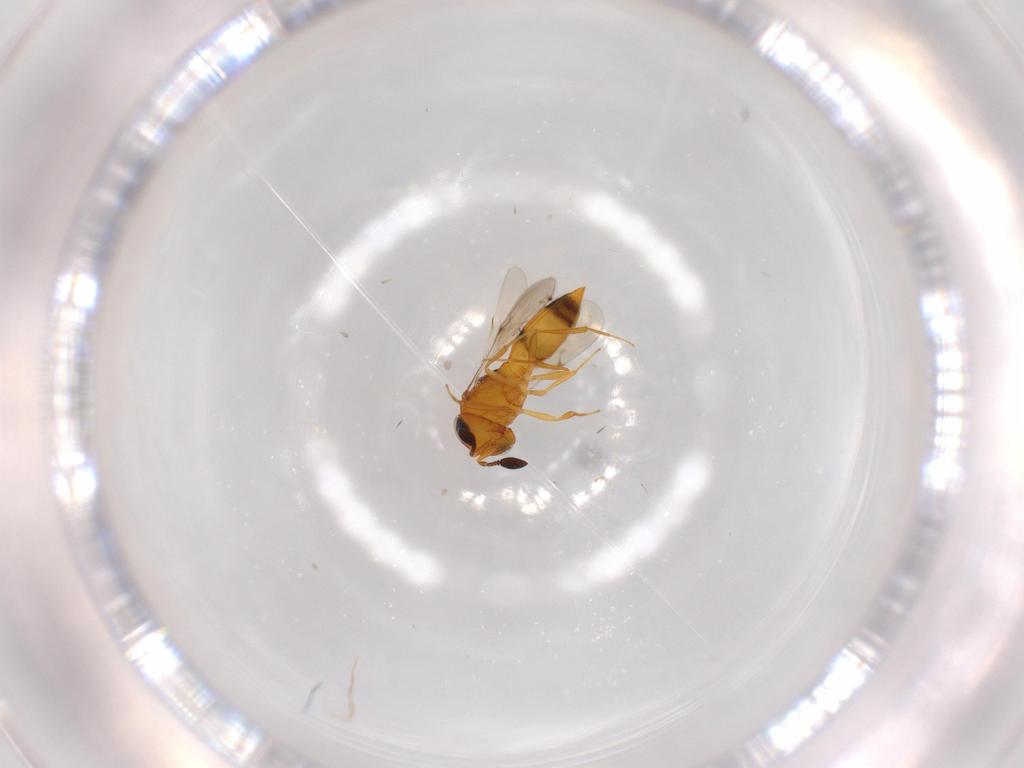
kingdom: Animalia
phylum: Arthropoda
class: Insecta
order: Hymenoptera
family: Scelionidae
